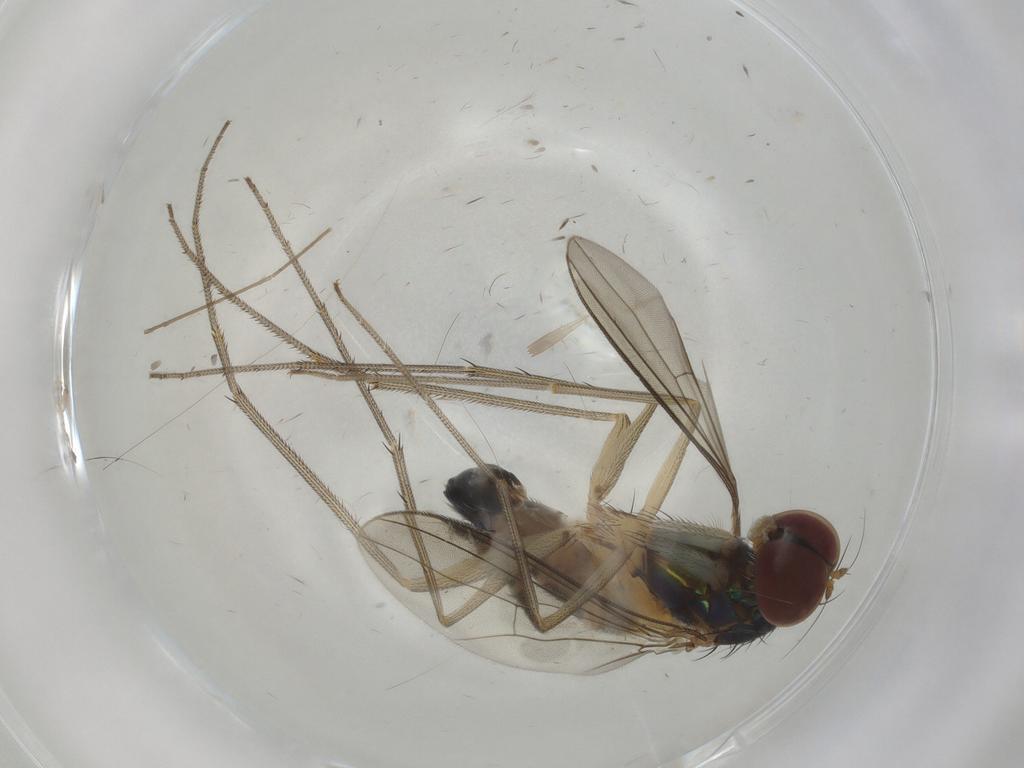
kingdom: Animalia
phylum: Arthropoda
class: Insecta
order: Diptera
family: Dolichopodidae
